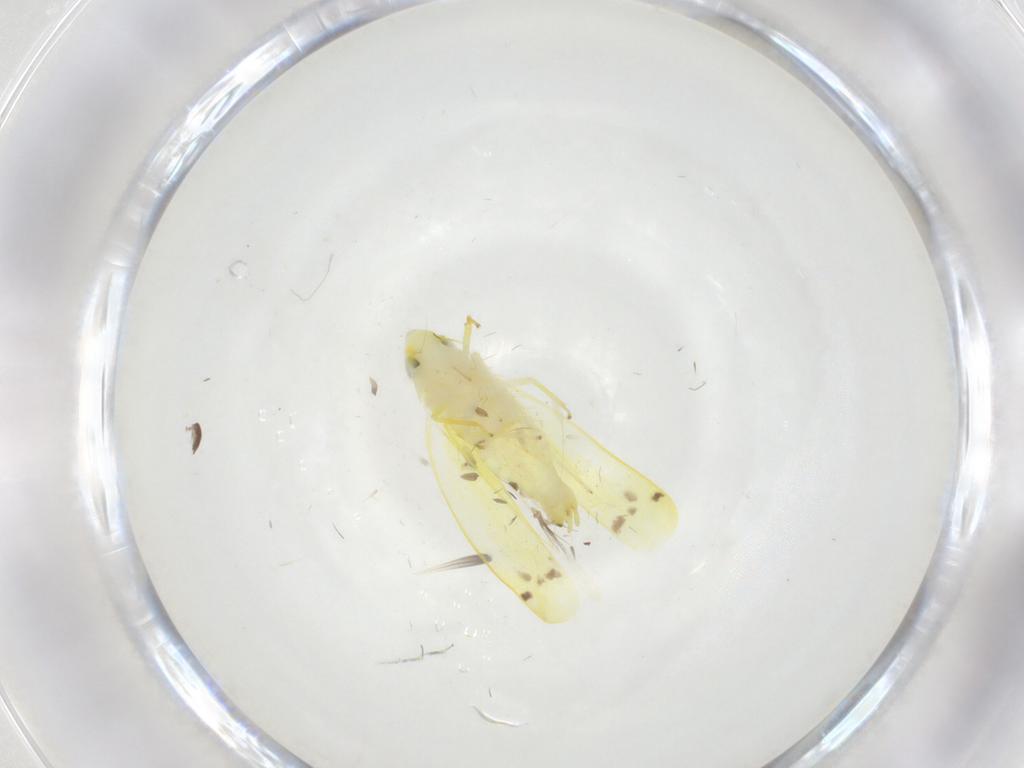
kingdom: Animalia
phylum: Arthropoda
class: Insecta
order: Hemiptera
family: Cicadellidae
